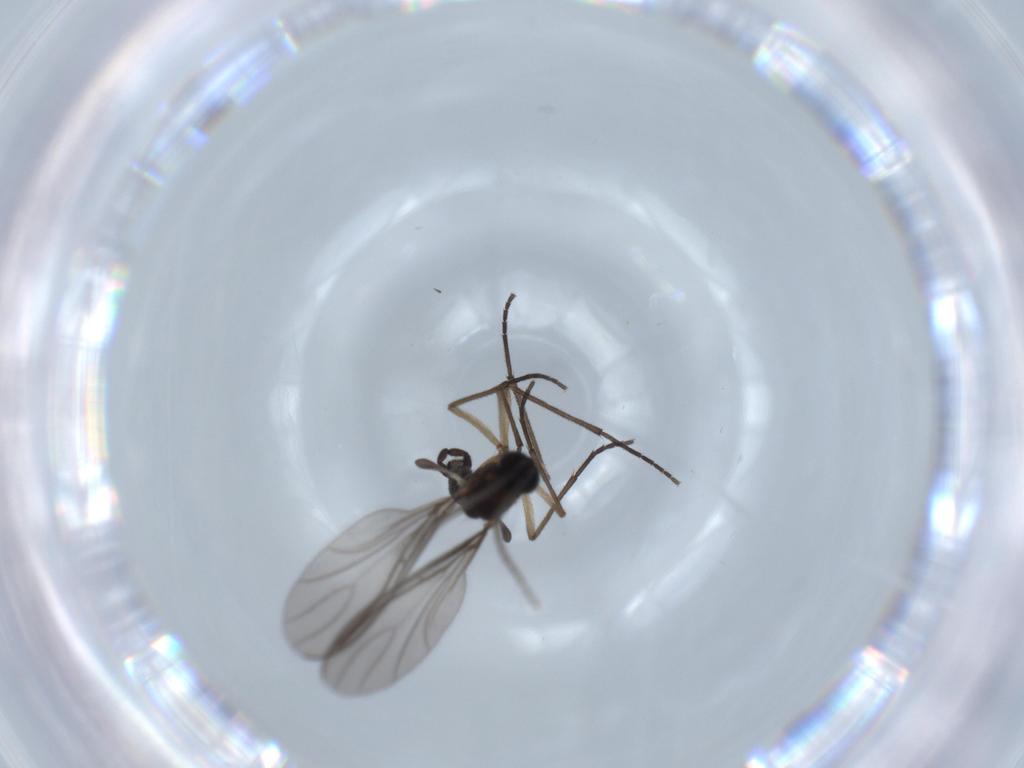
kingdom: Animalia
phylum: Arthropoda
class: Insecta
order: Diptera
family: Sciaridae
